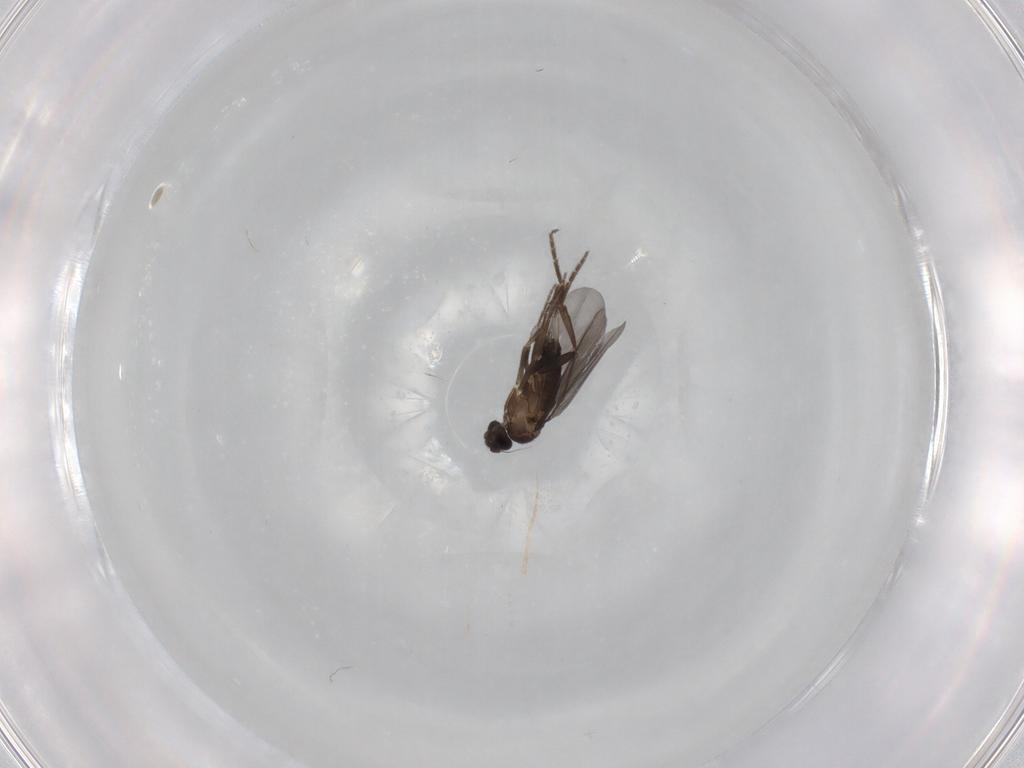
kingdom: Animalia
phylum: Arthropoda
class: Insecta
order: Diptera
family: Phoridae
